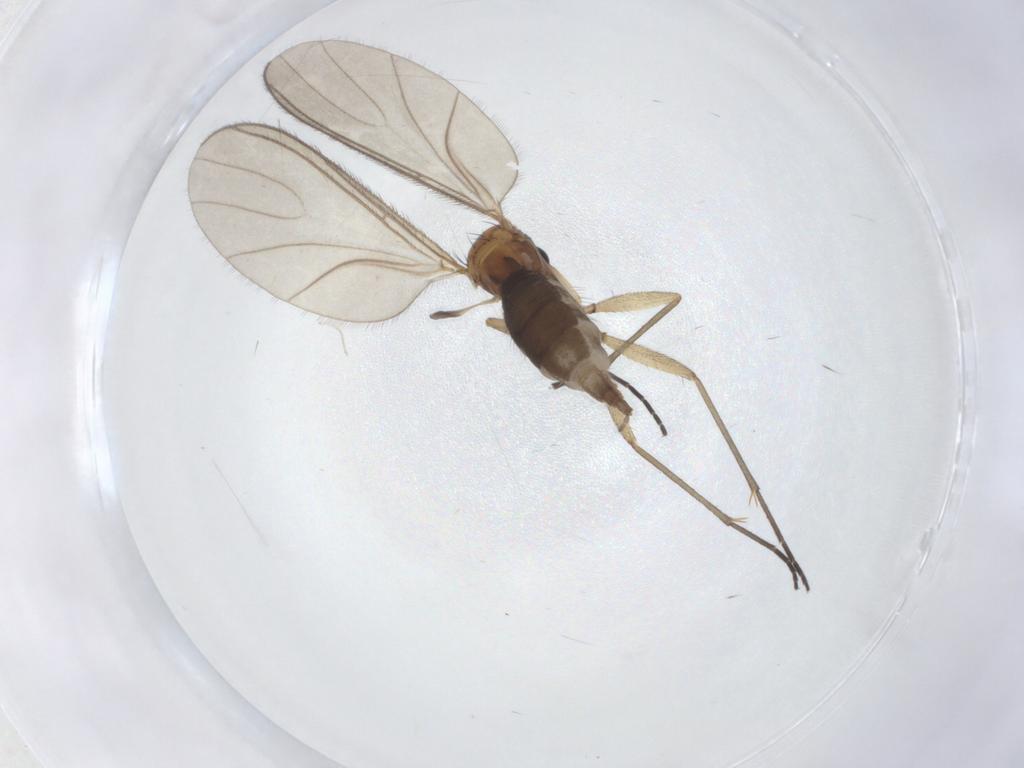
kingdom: Animalia
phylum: Arthropoda
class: Insecta
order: Diptera
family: Sciaridae
